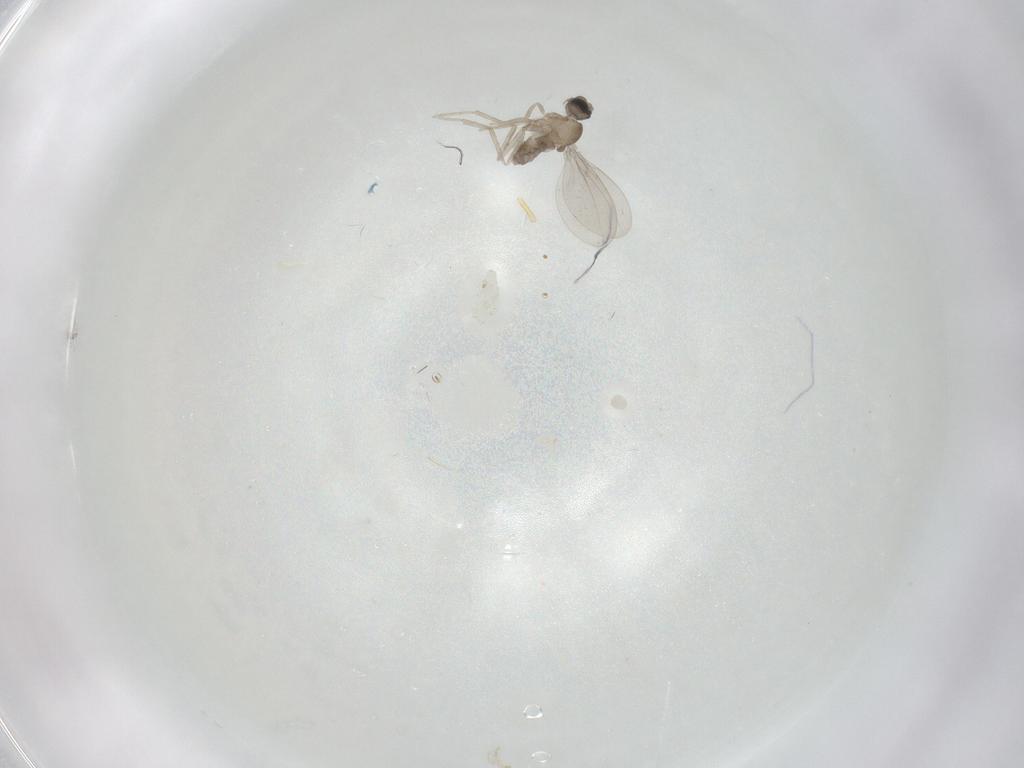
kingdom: Animalia
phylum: Arthropoda
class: Insecta
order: Diptera
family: Cecidomyiidae
